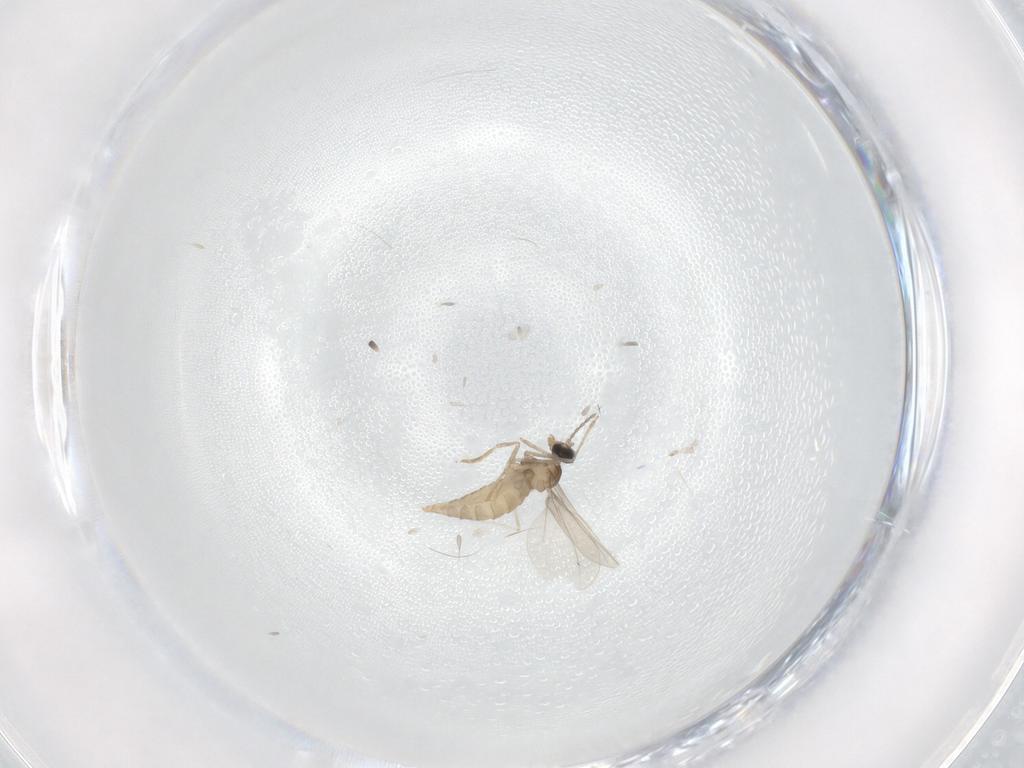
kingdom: Animalia
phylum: Arthropoda
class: Insecta
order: Diptera
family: Cecidomyiidae
